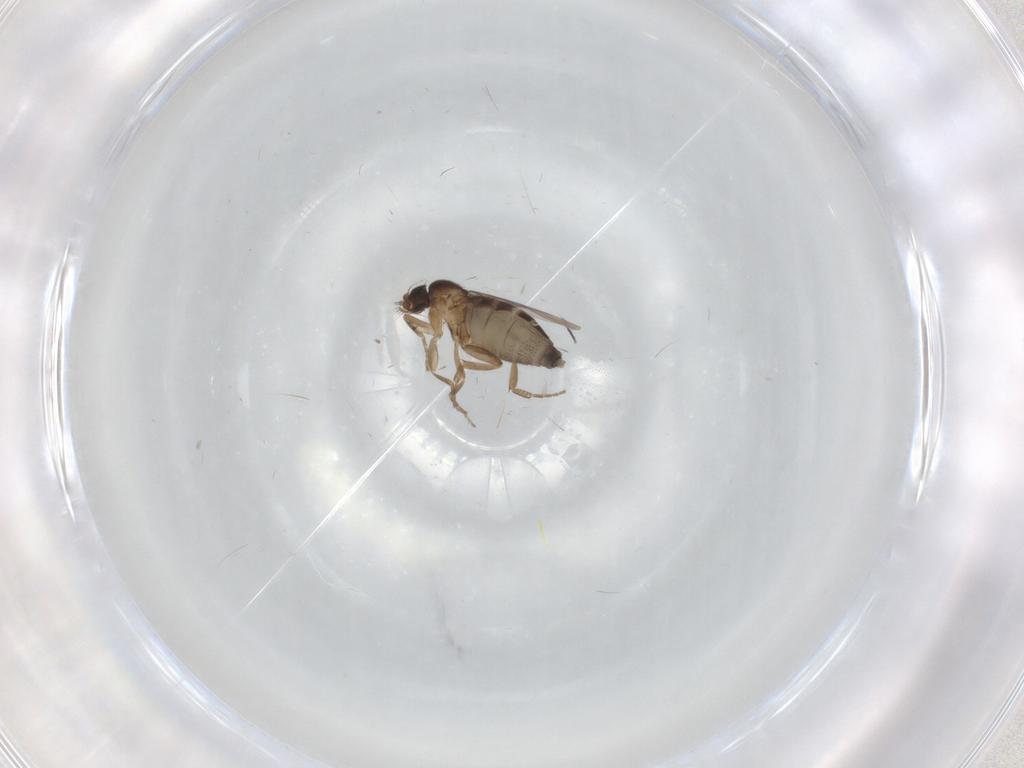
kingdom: Animalia
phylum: Arthropoda
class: Insecta
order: Diptera
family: Phoridae
